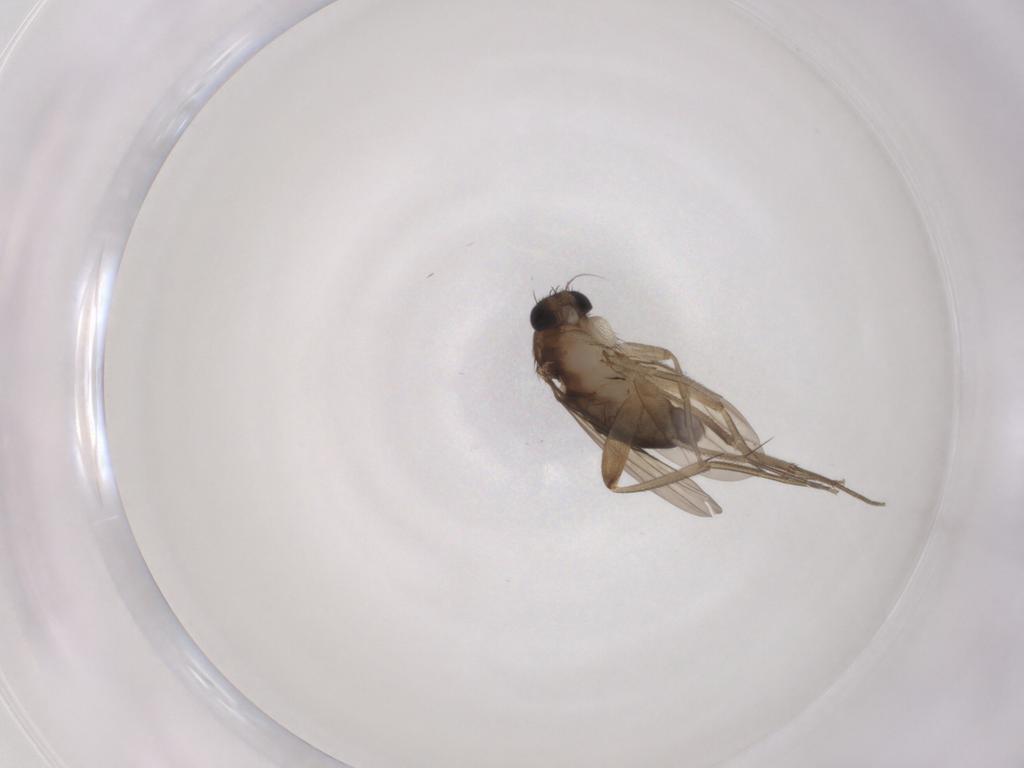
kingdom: Animalia
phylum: Arthropoda
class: Insecta
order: Diptera
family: Phoridae
